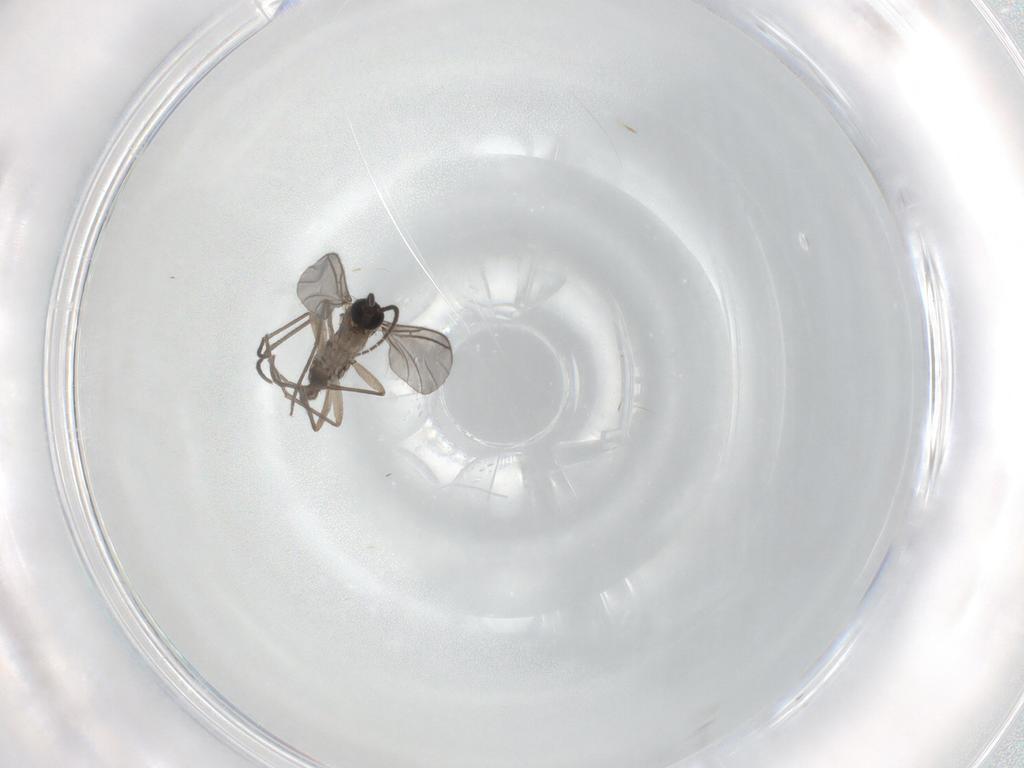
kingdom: Animalia
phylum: Arthropoda
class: Insecta
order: Diptera
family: Sciaridae
